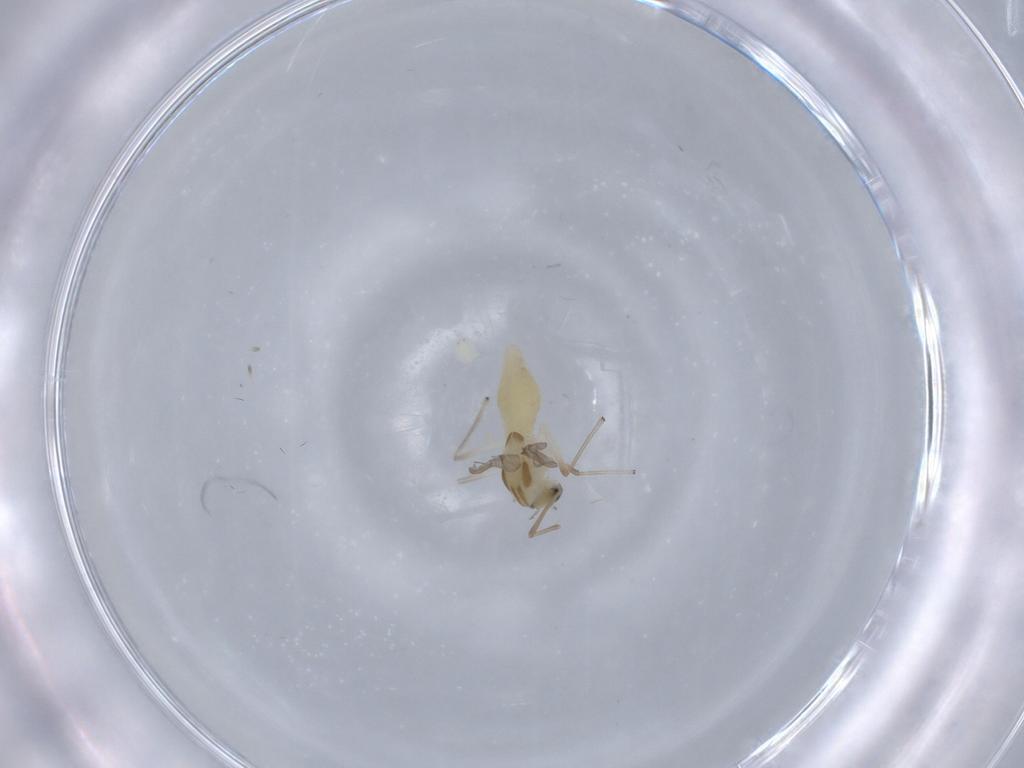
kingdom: Animalia
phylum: Arthropoda
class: Insecta
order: Diptera
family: Chironomidae
